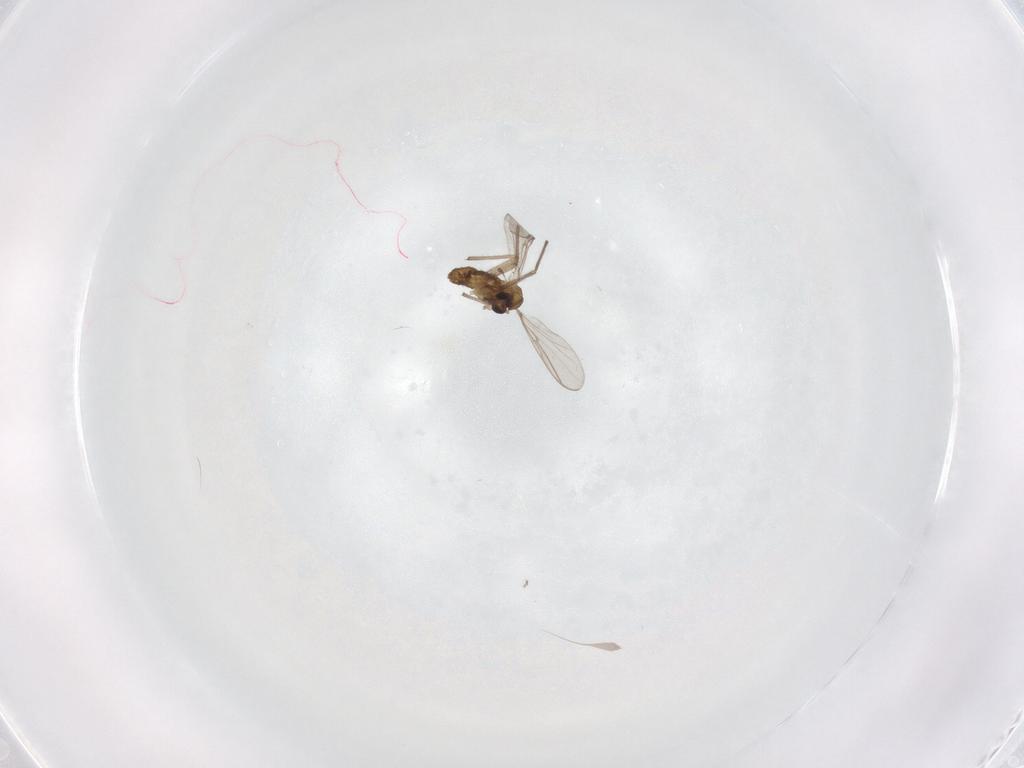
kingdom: Animalia
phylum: Arthropoda
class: Insecta
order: Diptera
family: Chironomidae
